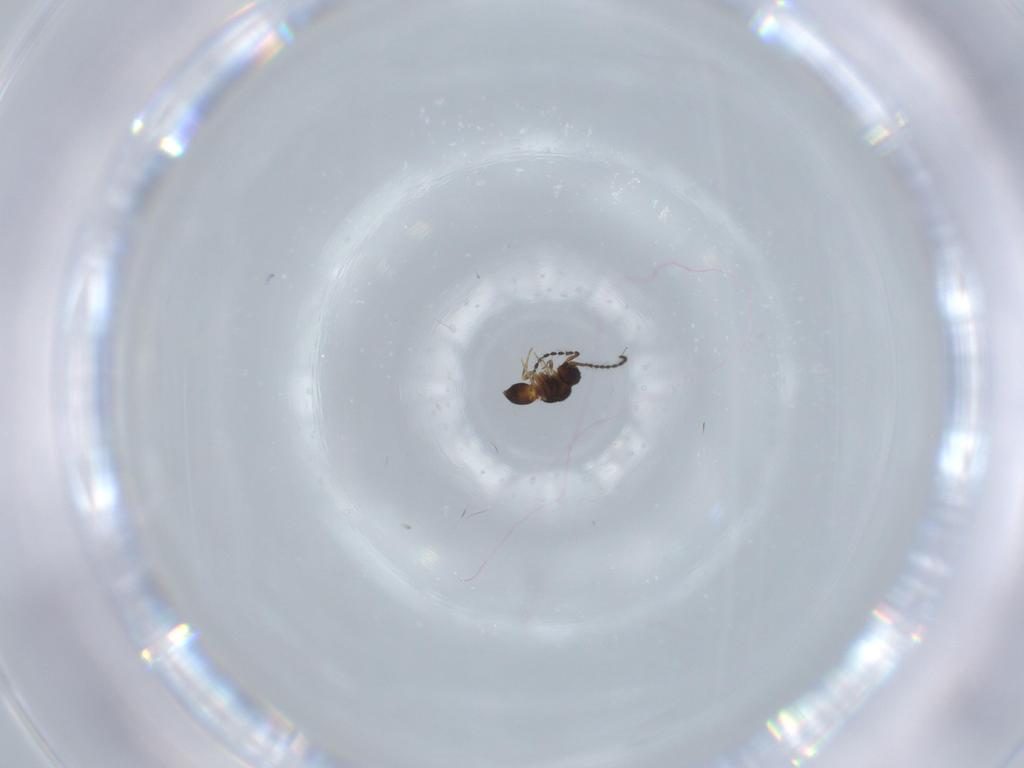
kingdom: Animalia
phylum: Arthropoda
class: Insecta
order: Hymenoptera
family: Ceraphronidae
